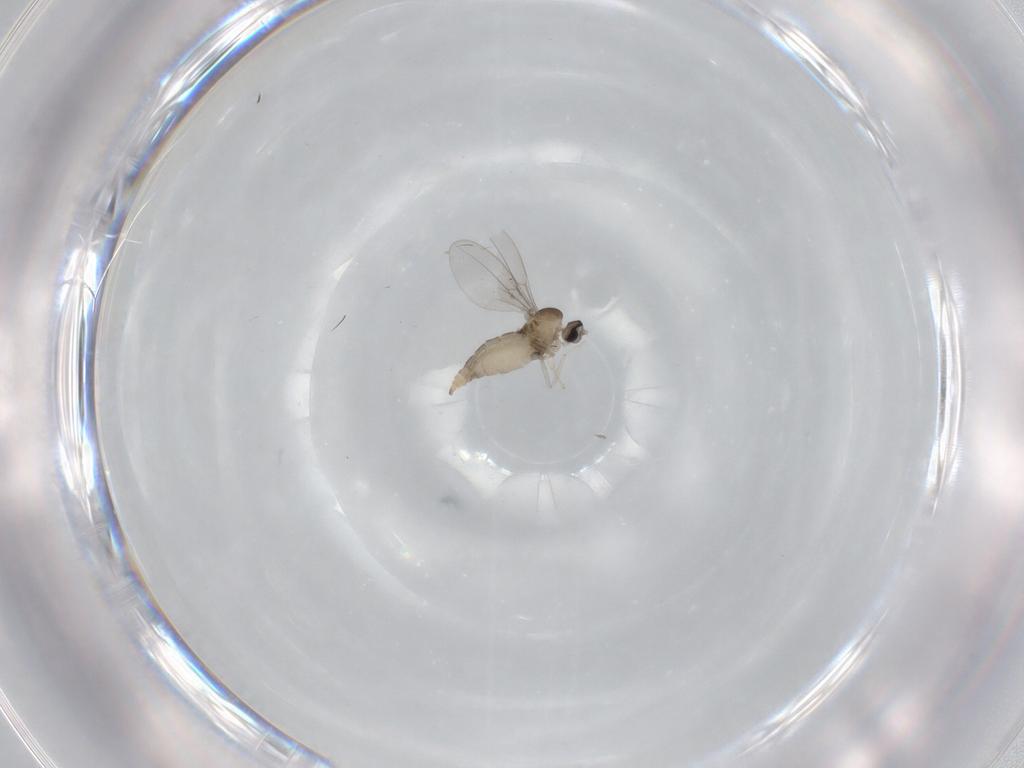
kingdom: Animalia
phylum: Arthropoda
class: Insecta
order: Diptera
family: Cecidomyiidae
